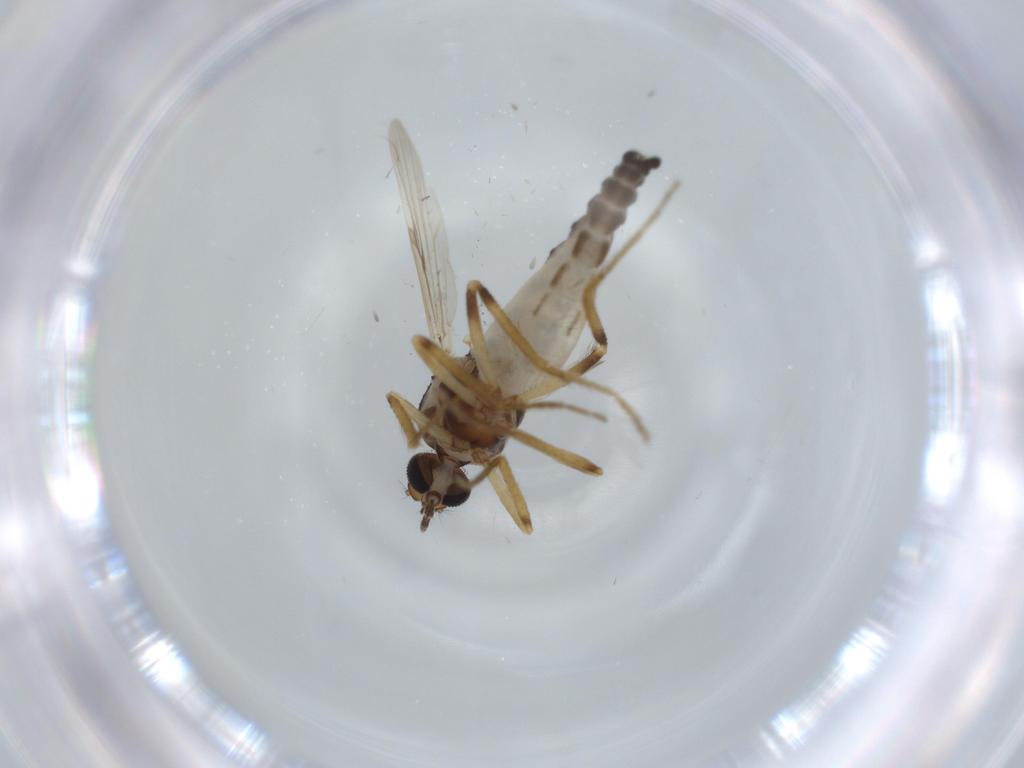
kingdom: Animalia
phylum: Arthropoda
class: Insecta
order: Diptera
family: Cecidomyiidae
